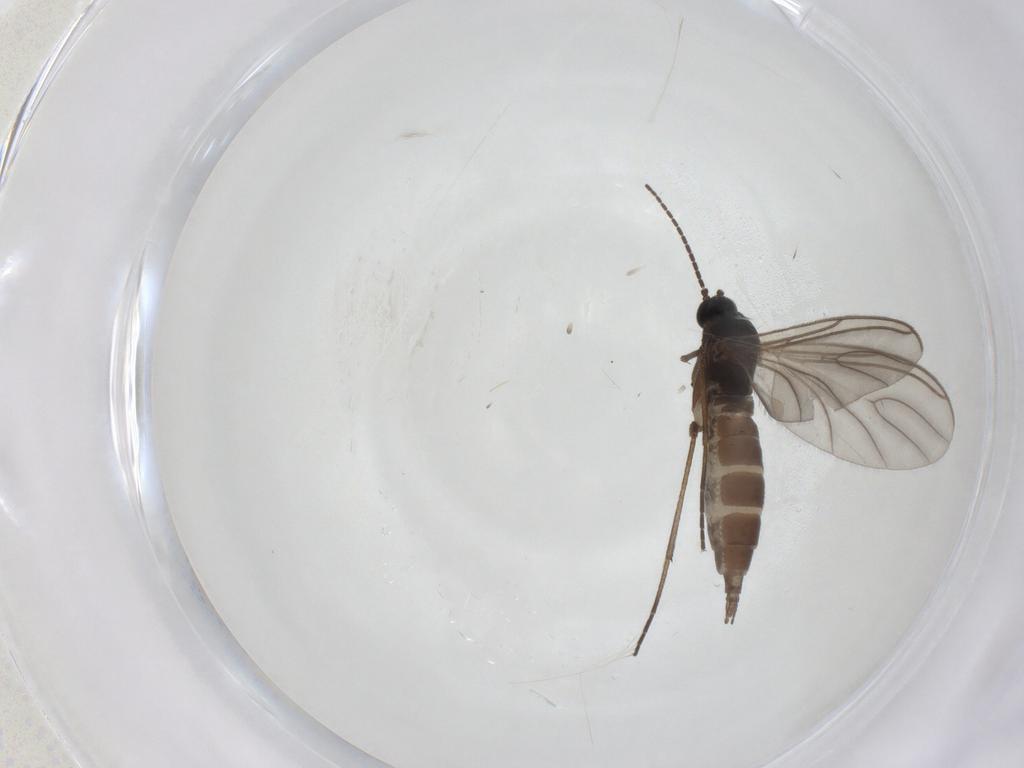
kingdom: Animalia
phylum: Arthropoda
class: Insecta
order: Diptera
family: Sciaridae
